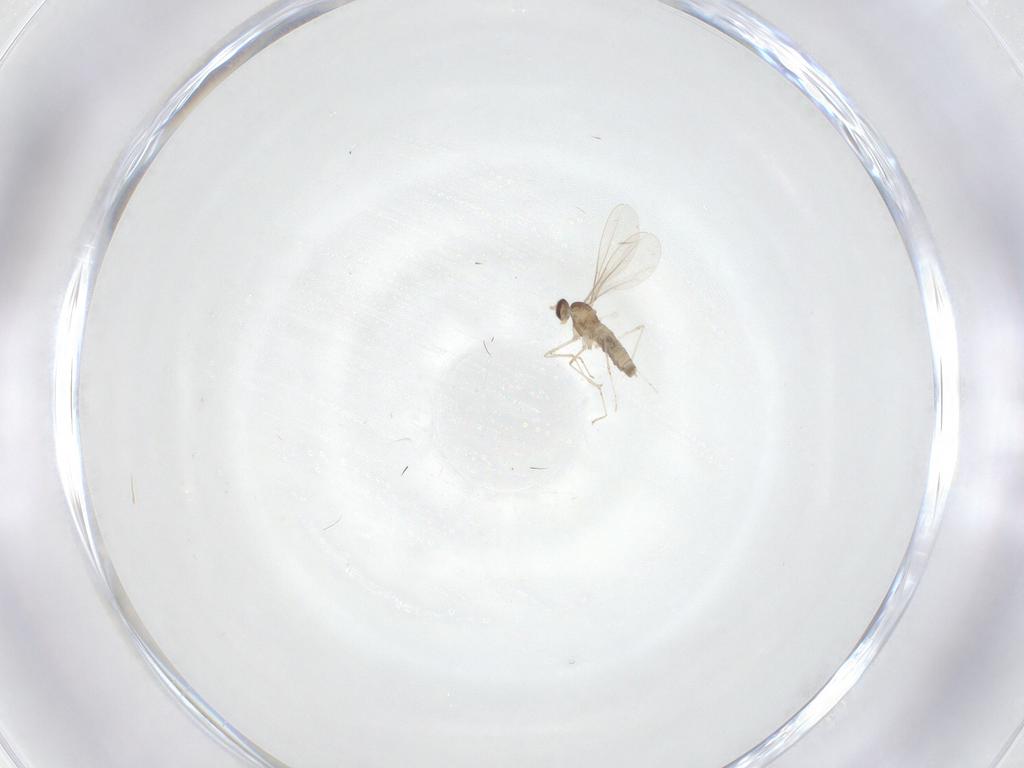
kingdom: Animalia
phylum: Arthropoda
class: Insecta
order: Diptera
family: Cecidomyiidae
